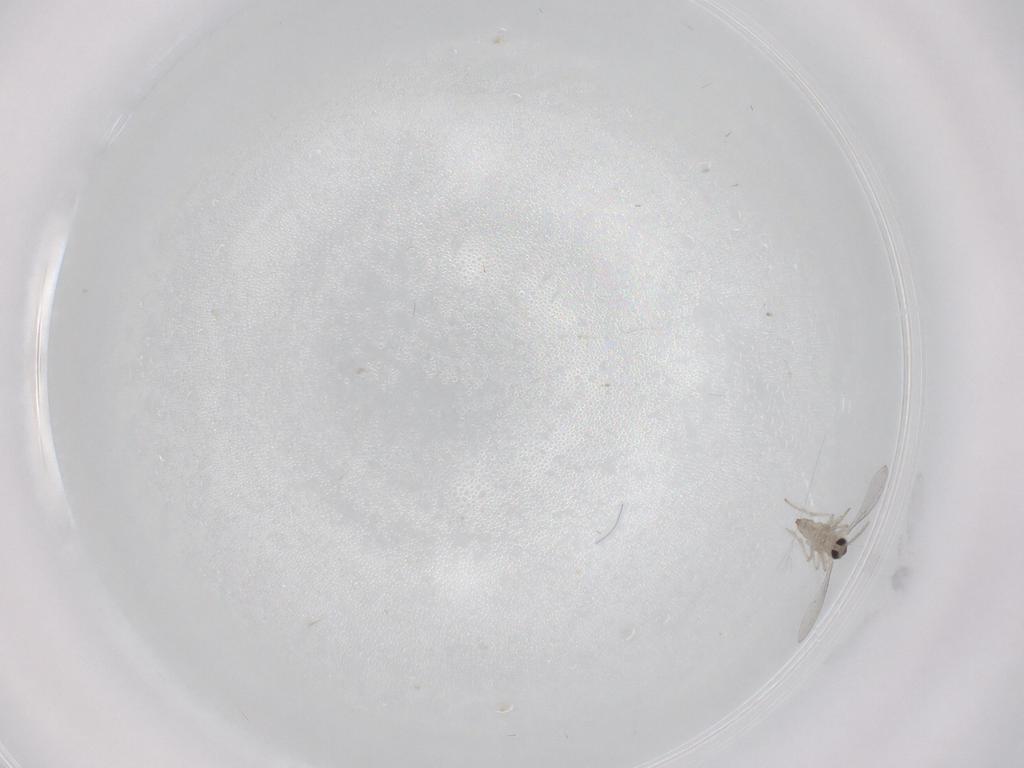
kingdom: Animalia
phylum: Arthropoda
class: Insecta
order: Diptera
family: Cecidomyiidae
